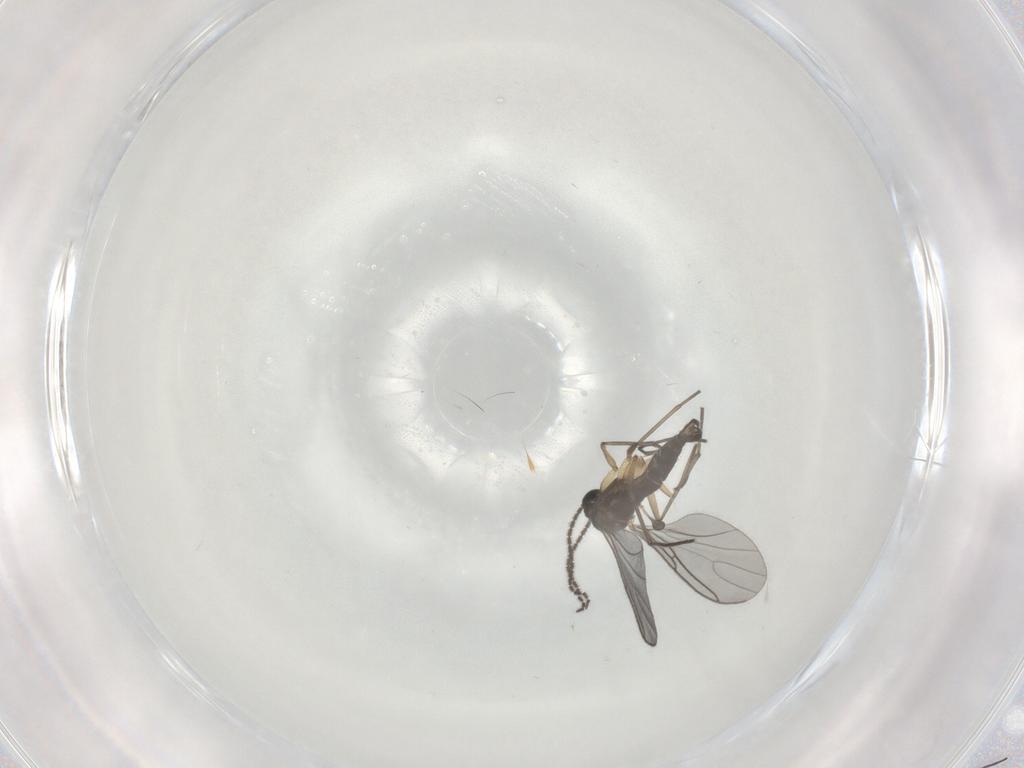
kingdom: Animalia
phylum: Arthropoda
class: Insecta
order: Diptera
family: Sciaridae
